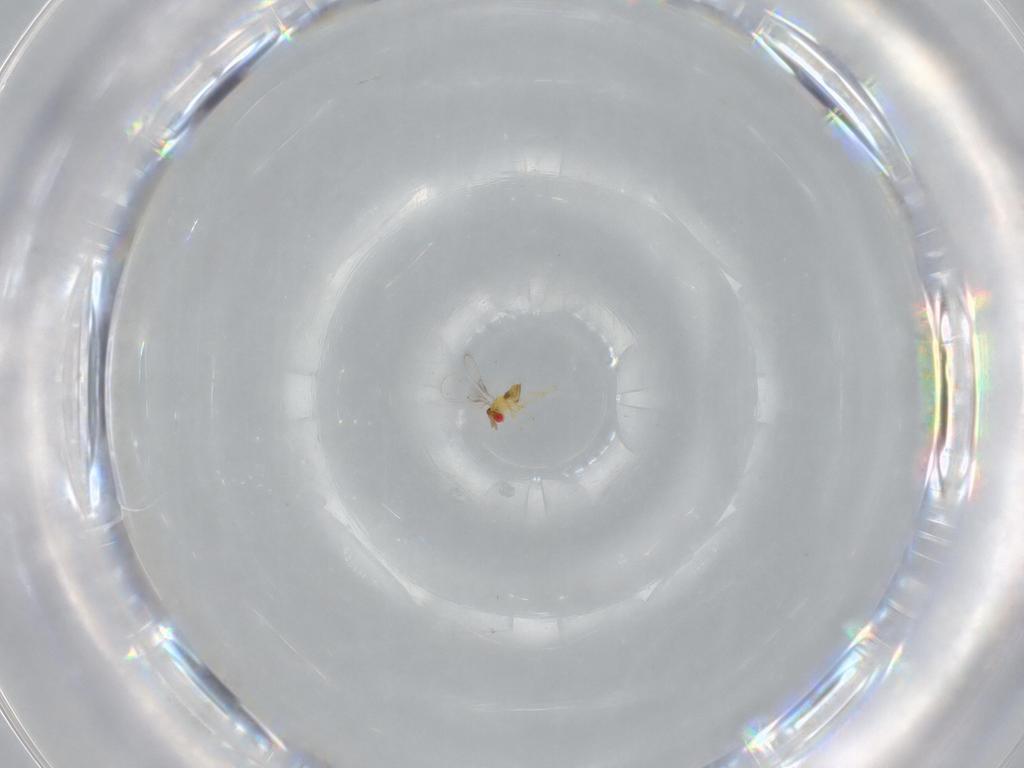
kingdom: Animalia
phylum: Arthropoda
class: Insecta
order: Hymenoptera
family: Trichogrammatidae
